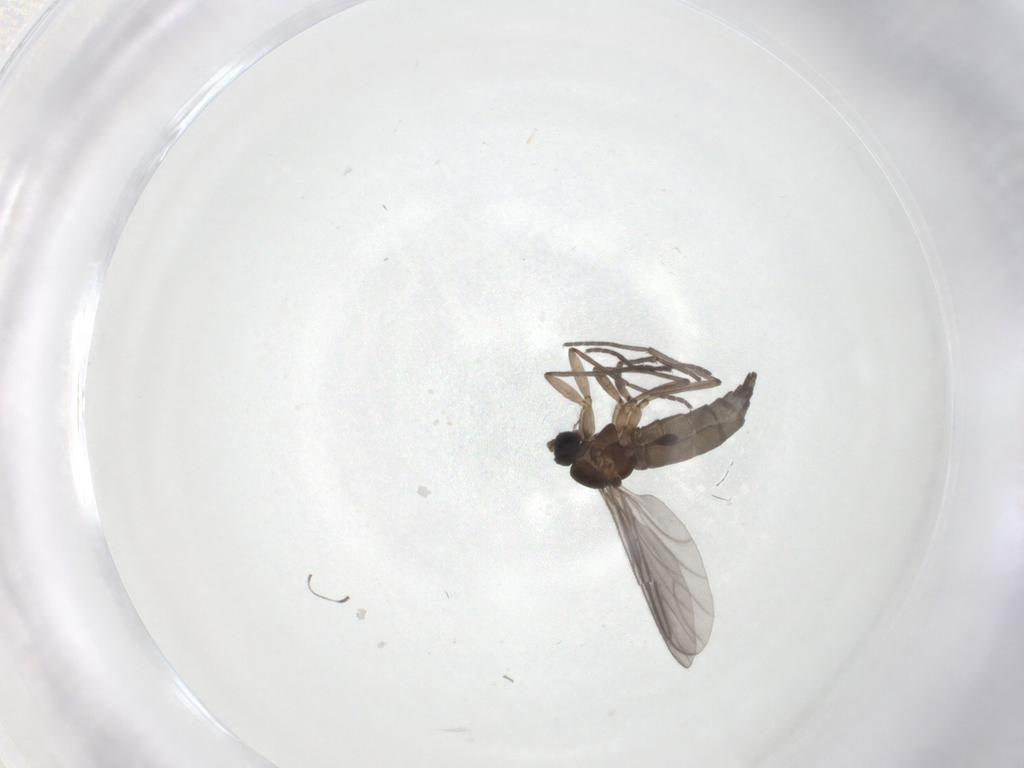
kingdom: Animalia
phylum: Arthropoda
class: Insecta
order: Diptera
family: Sciaridae
